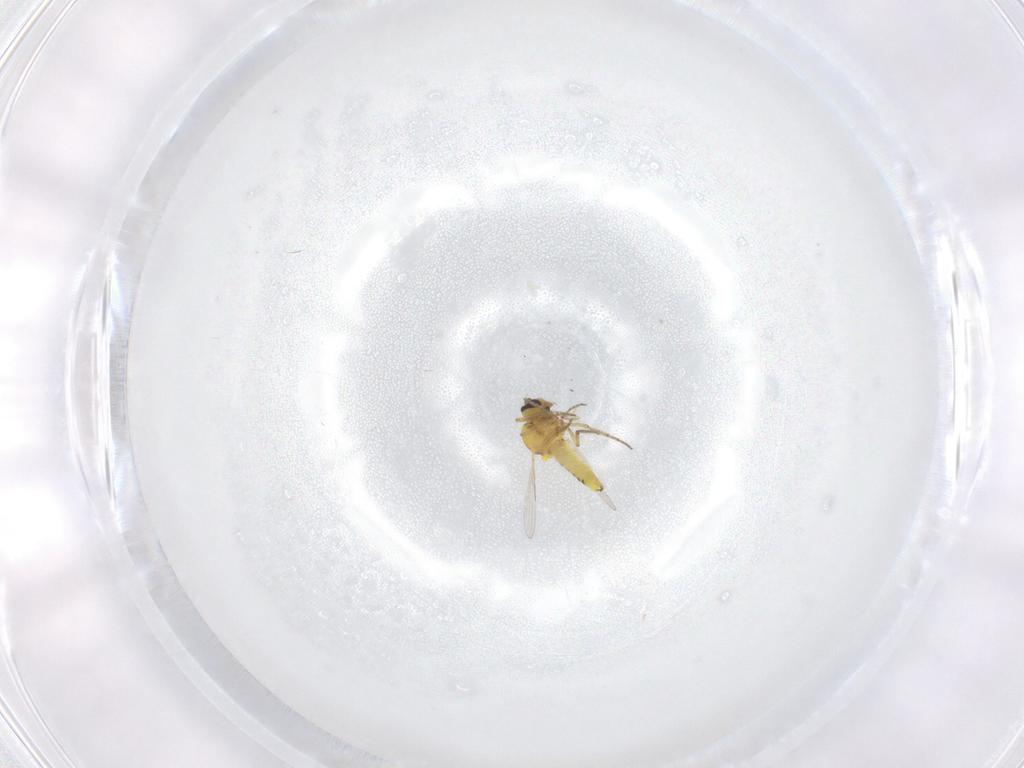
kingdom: Animalia
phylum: Arthropoda
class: Insecta
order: Diptera
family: Ceratopogonidae
